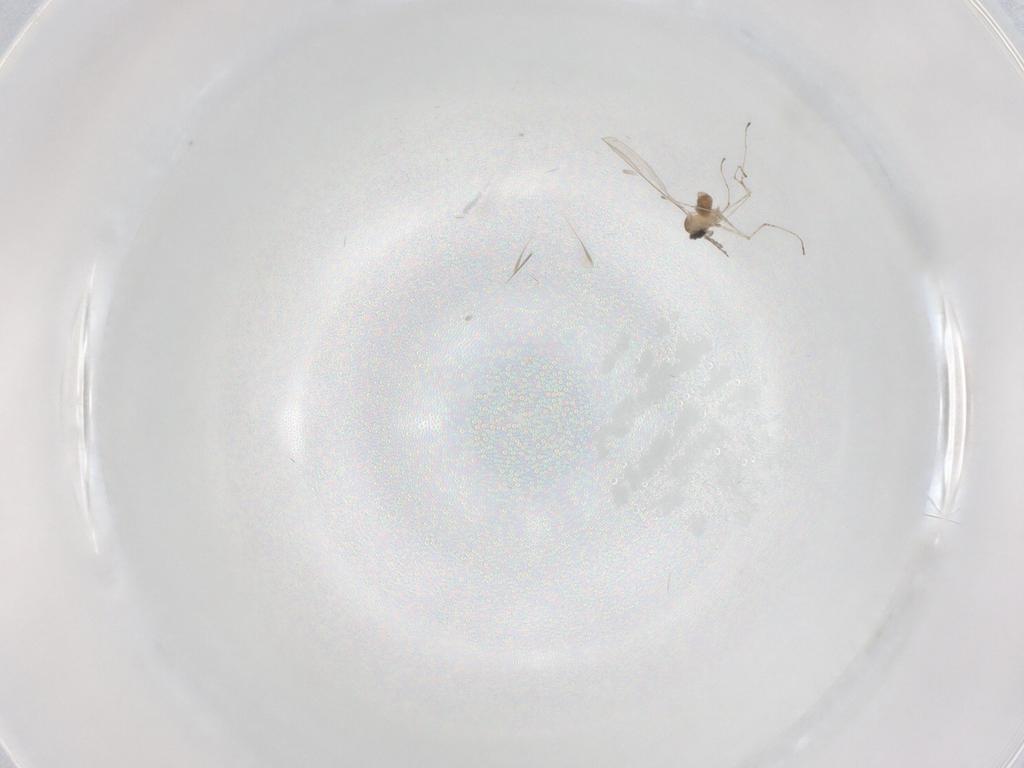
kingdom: Animalia
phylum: Arthropoda
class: Insecta
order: Diptera
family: Cecidomyiidae
